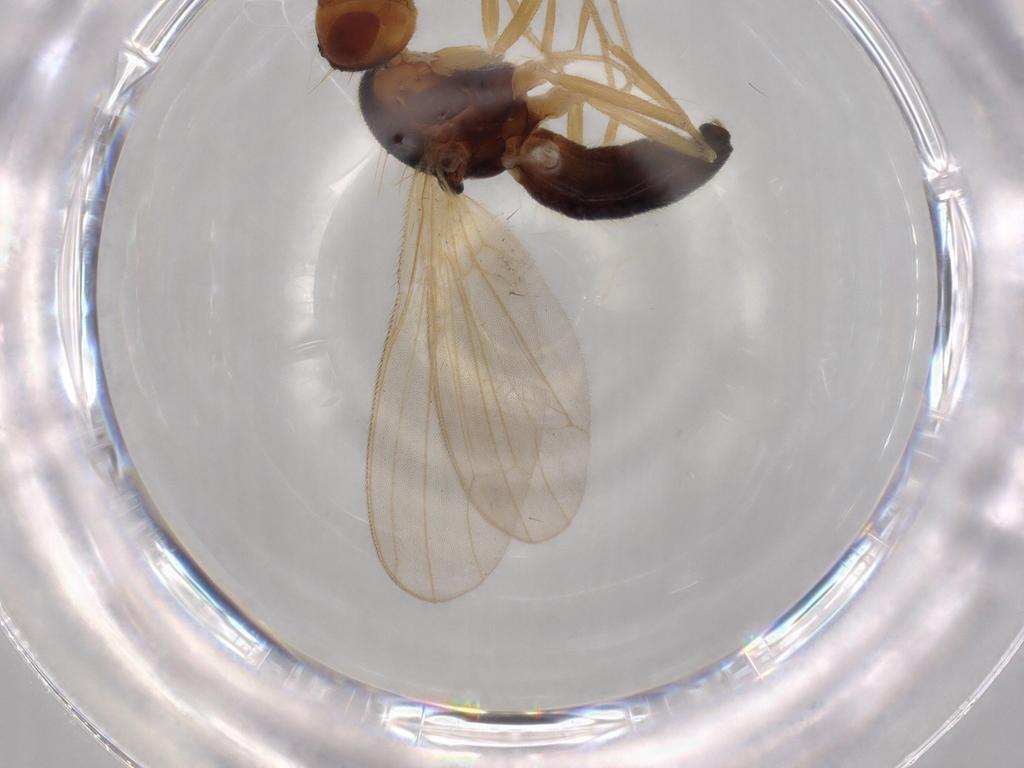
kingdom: Animalia
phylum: Arthropoda
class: Insecta
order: Diptera
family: Psilidae
